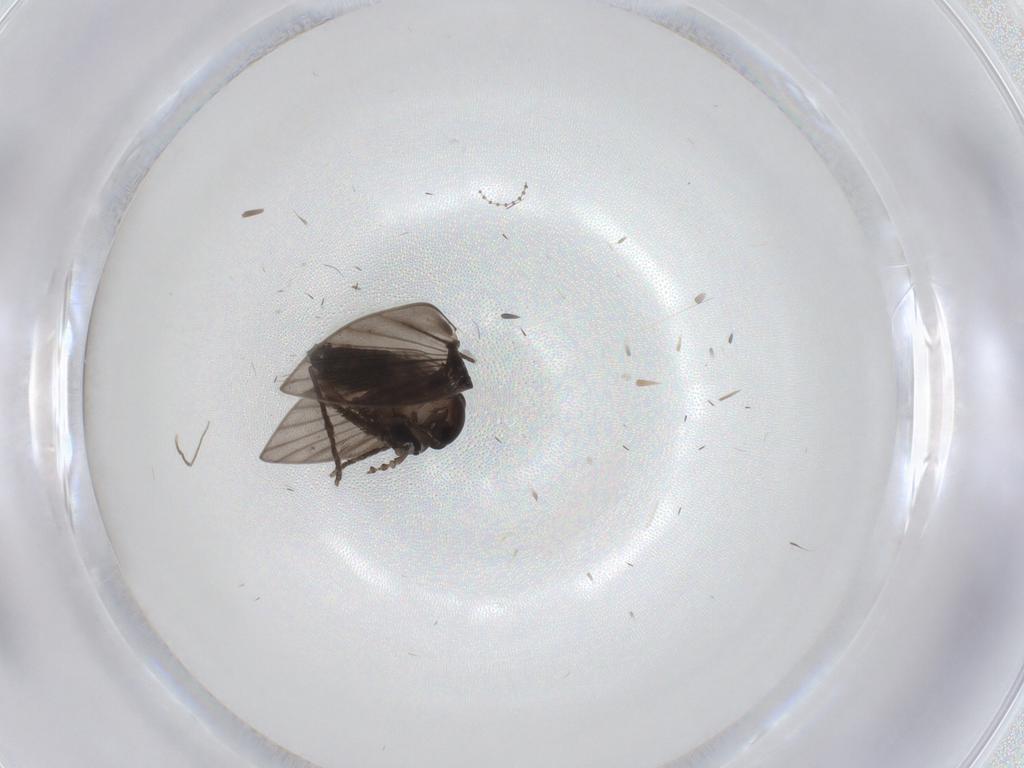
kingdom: Animalia
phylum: Arthropoda
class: Insecta
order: Diptera
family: Chironomidae
